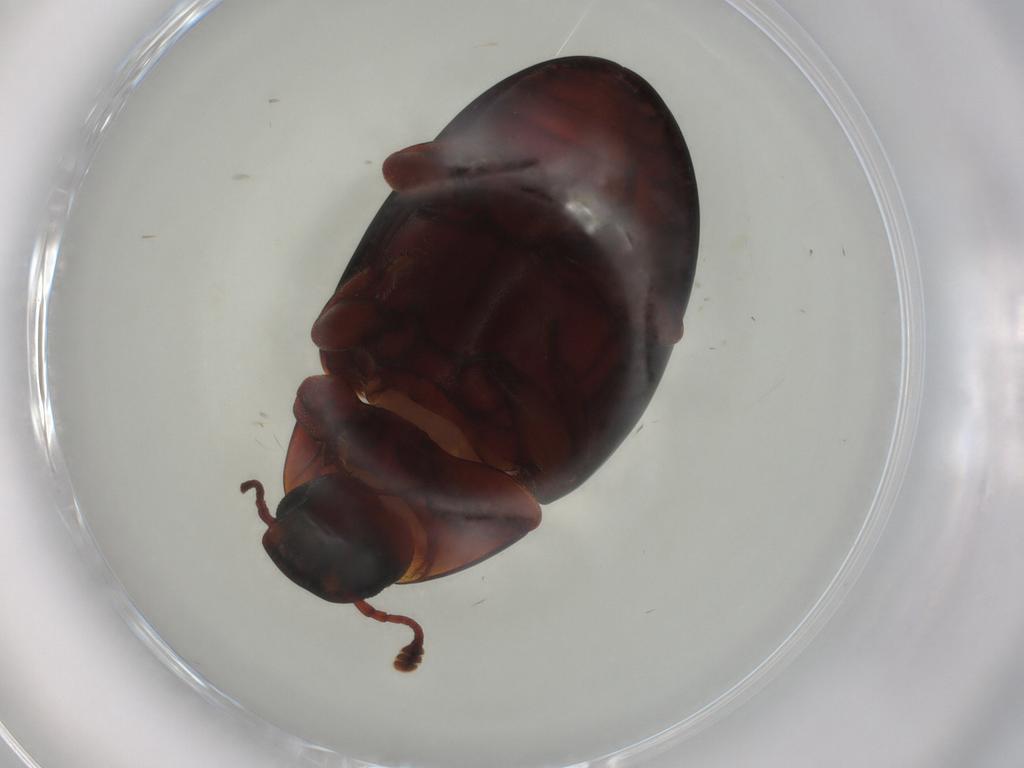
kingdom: Animalia
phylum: Arthropoda
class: Insecta
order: Coleoptera
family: Zopheridae
